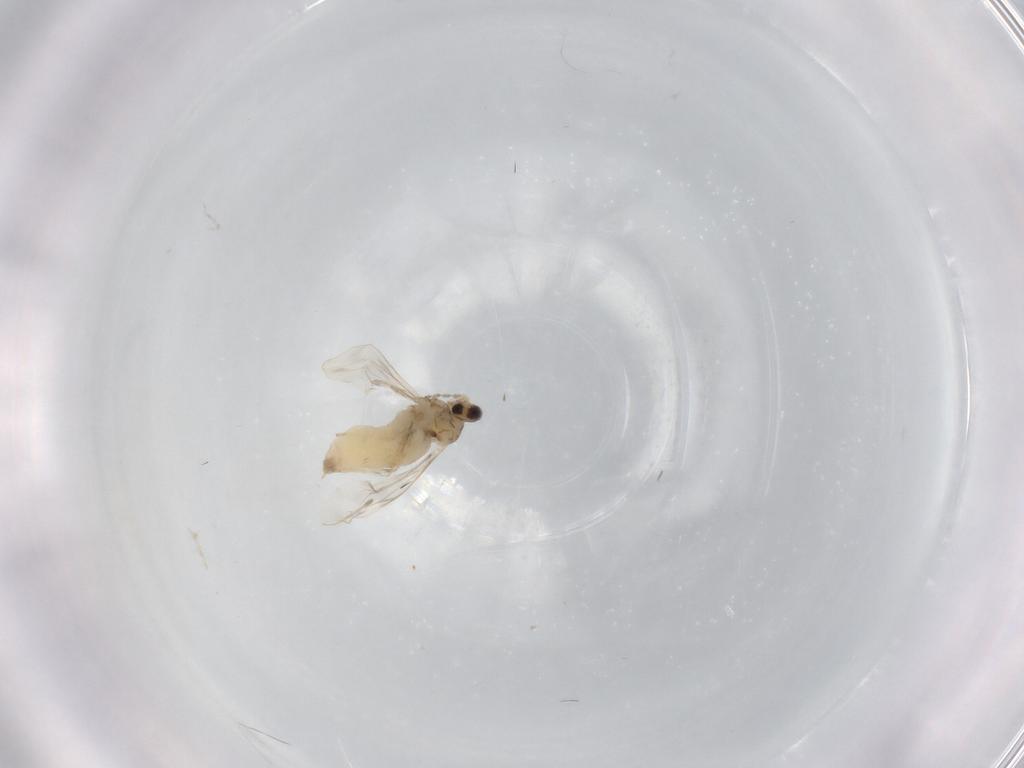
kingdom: Animalia
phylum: Arthropoda
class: Insecta
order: Diptera
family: Cecidomyiidae
